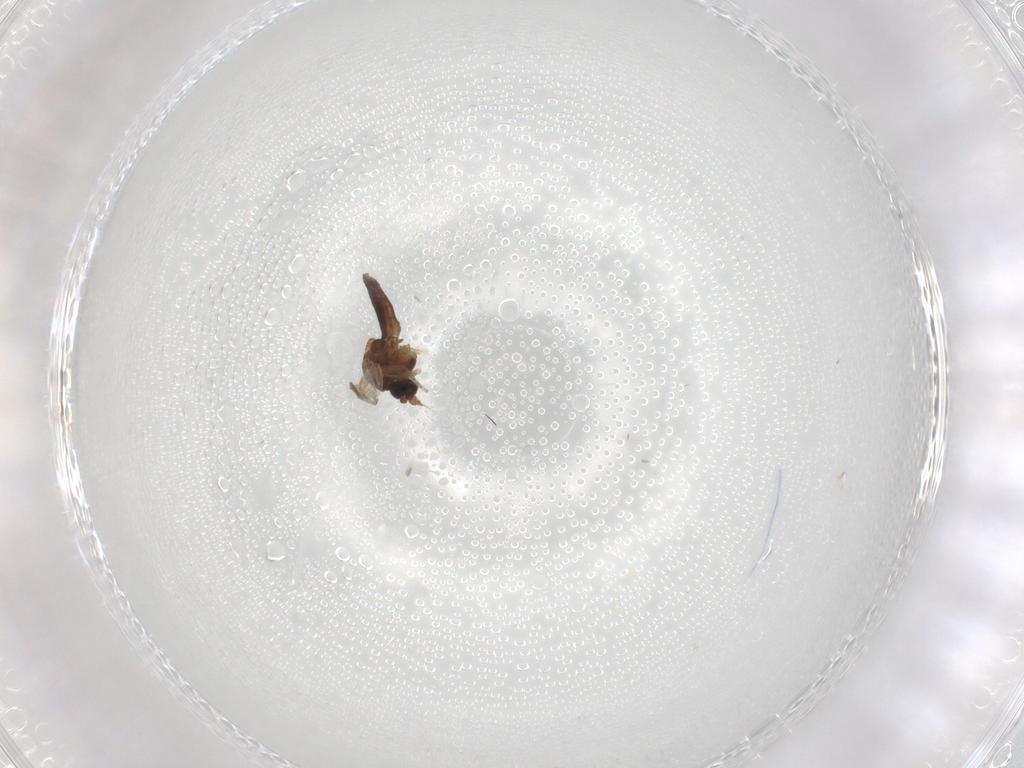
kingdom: Animalia
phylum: Arthropoda
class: Insecta
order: Diptera
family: Ceratopogonidae
